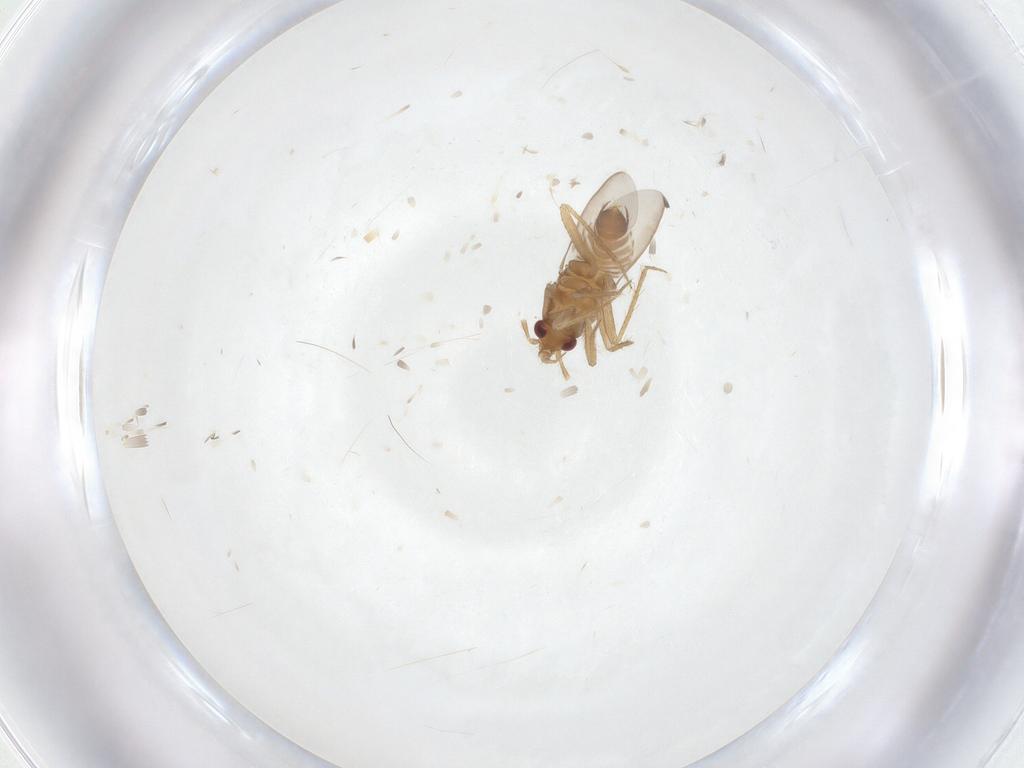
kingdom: Animalia
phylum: Arthropoda
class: Insecta
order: Hemiptera
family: Ceratocombidae
